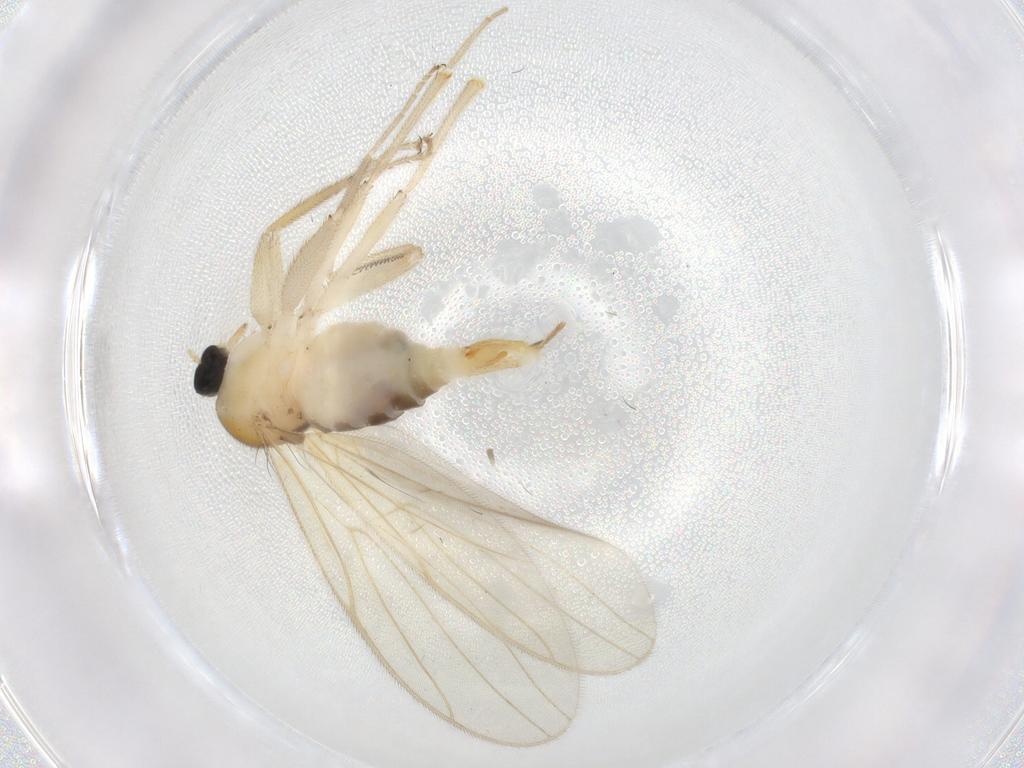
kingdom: Animalia
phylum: Arthropoda
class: Insecta
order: Diptera
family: Hybotidae
